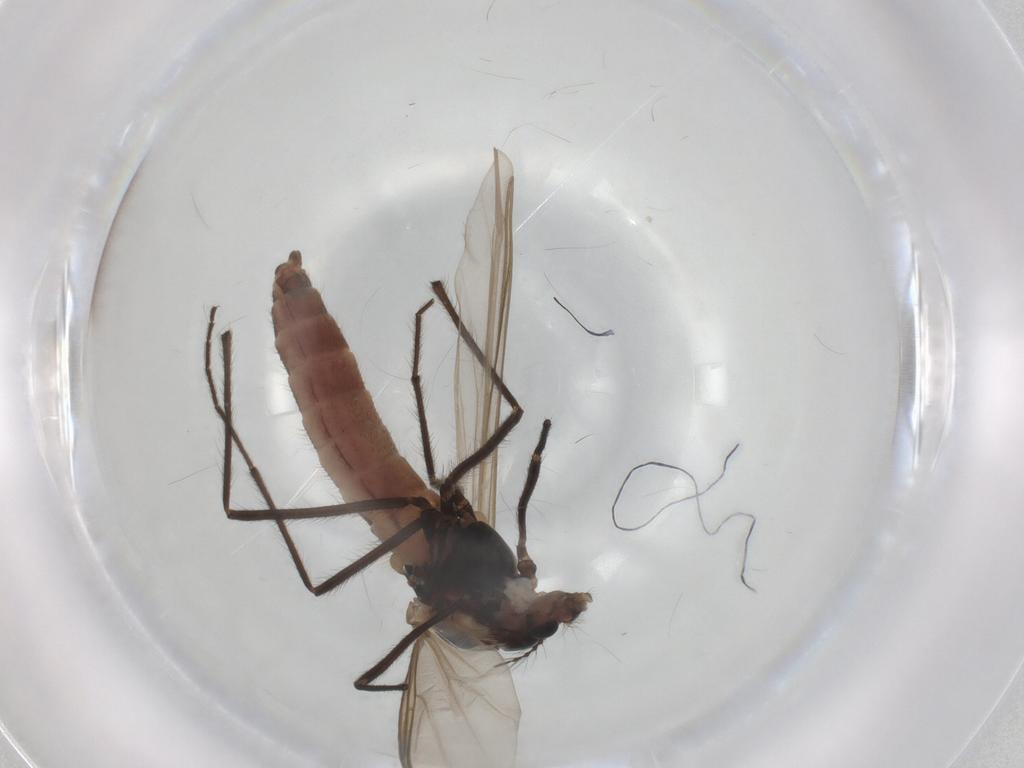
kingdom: Animalia
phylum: Arthropoda
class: Insecta
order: Diptera
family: Chironomidae
